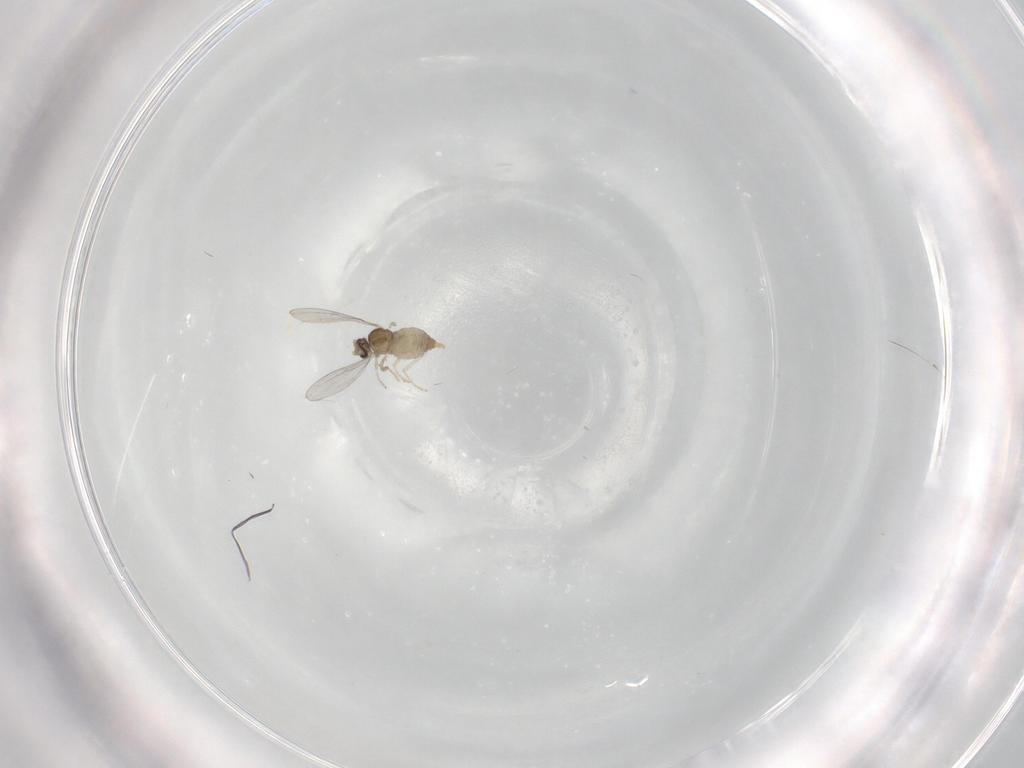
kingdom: Animalia
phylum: Arthropoda
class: Insecta
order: Diptera
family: Cecidomyiidae
